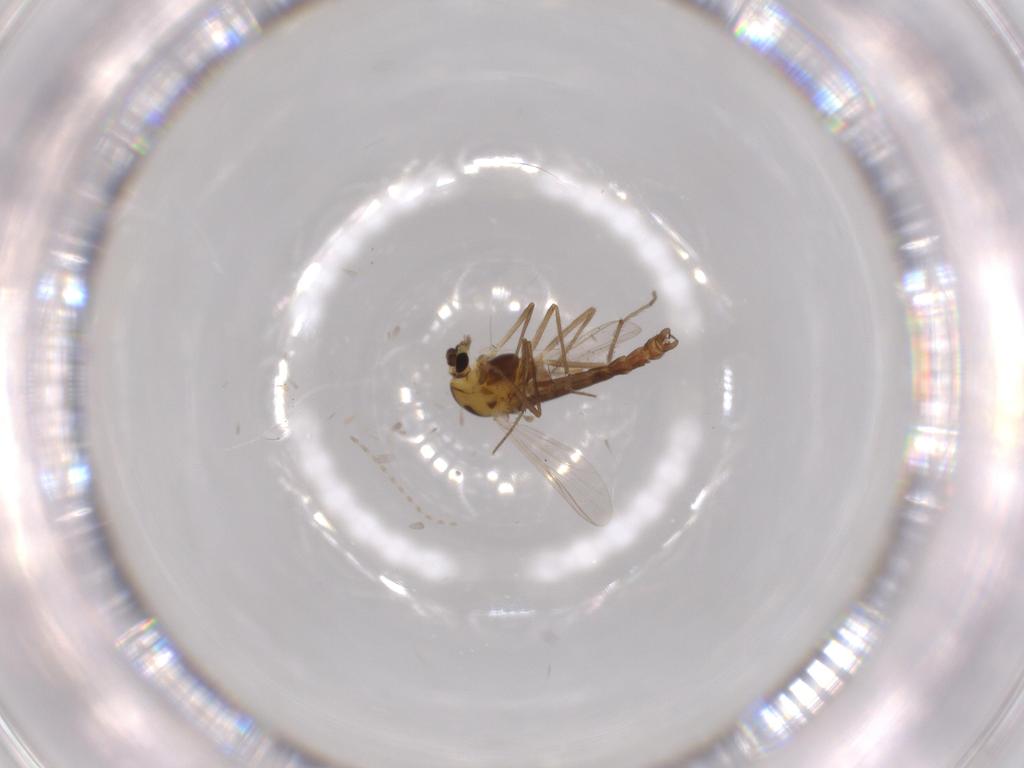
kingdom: Animalia
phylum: Arthropoda
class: Insecta
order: Diptera
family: Chironomidae
